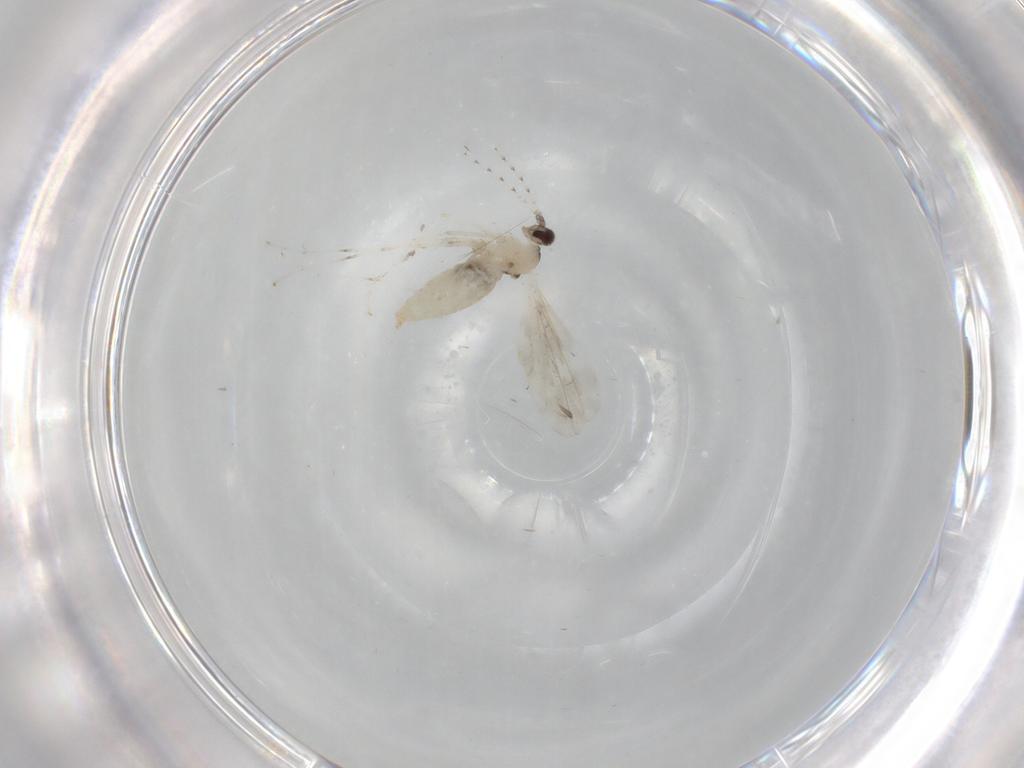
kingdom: Animalia
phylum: Arthropoda
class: Insecta
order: Diptera
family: Cecidomyiidae
